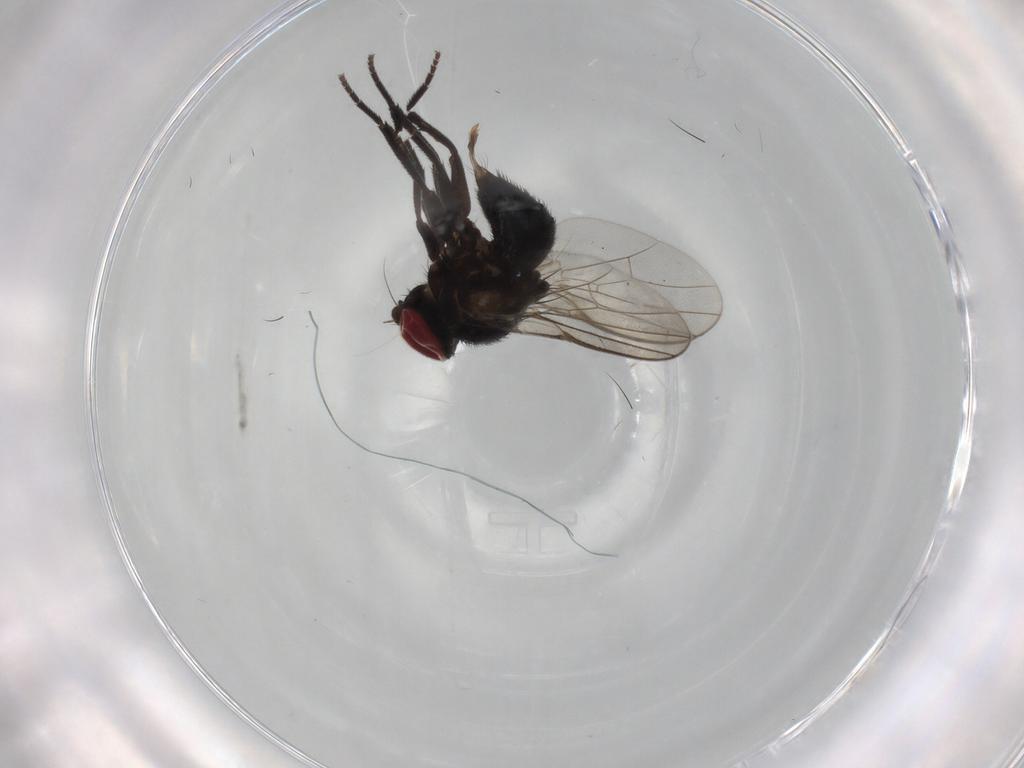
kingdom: Animalia
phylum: Arthropoda
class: Insecta
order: Diptera
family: Agromyzidae
